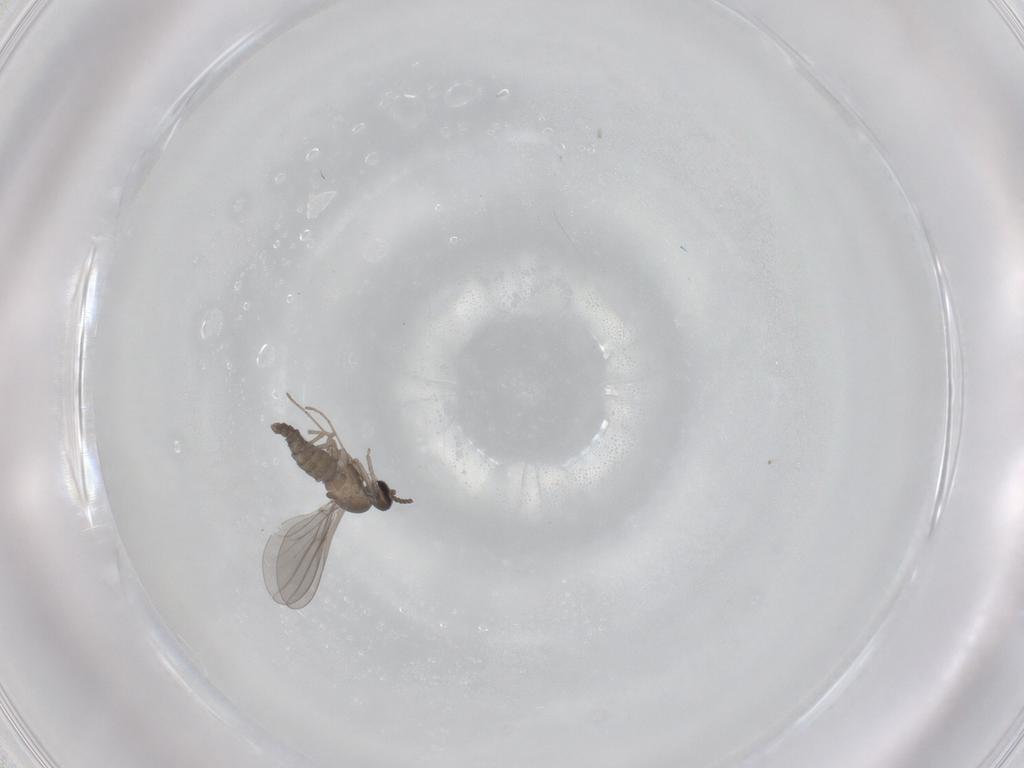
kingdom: Animalia
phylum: Arthropoda
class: Insecta
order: Diptera
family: Cecidomyiidae
